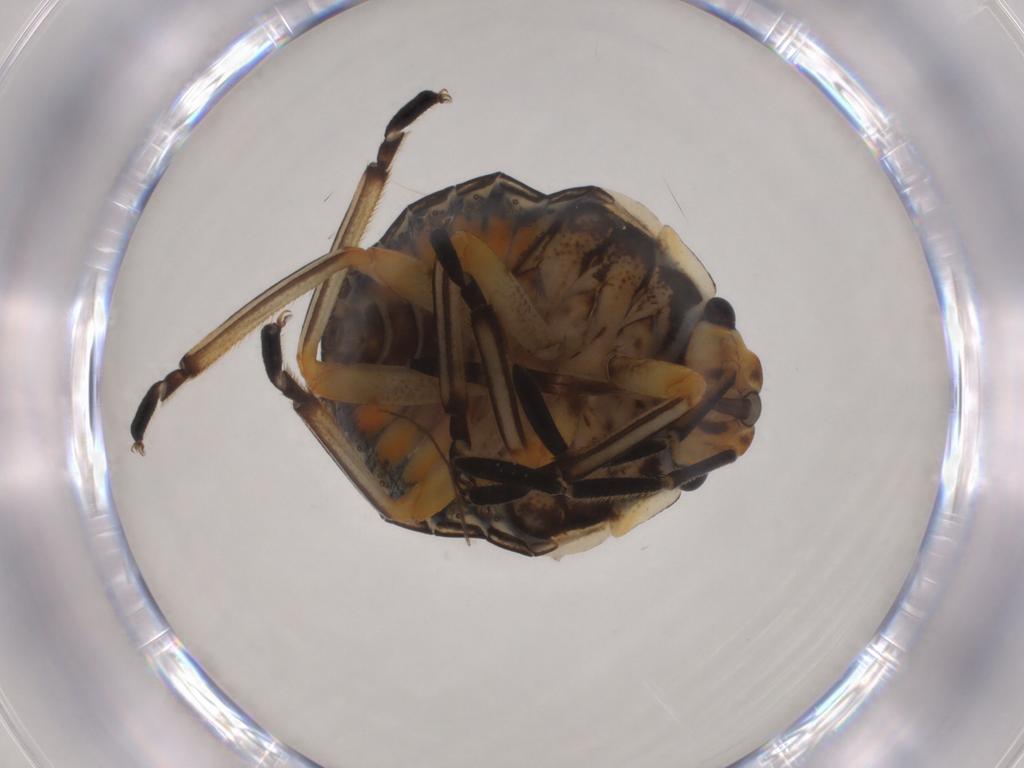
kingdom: Animalia
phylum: Arthropoda
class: Insecta
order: Hemiptera
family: Pentatomidae
